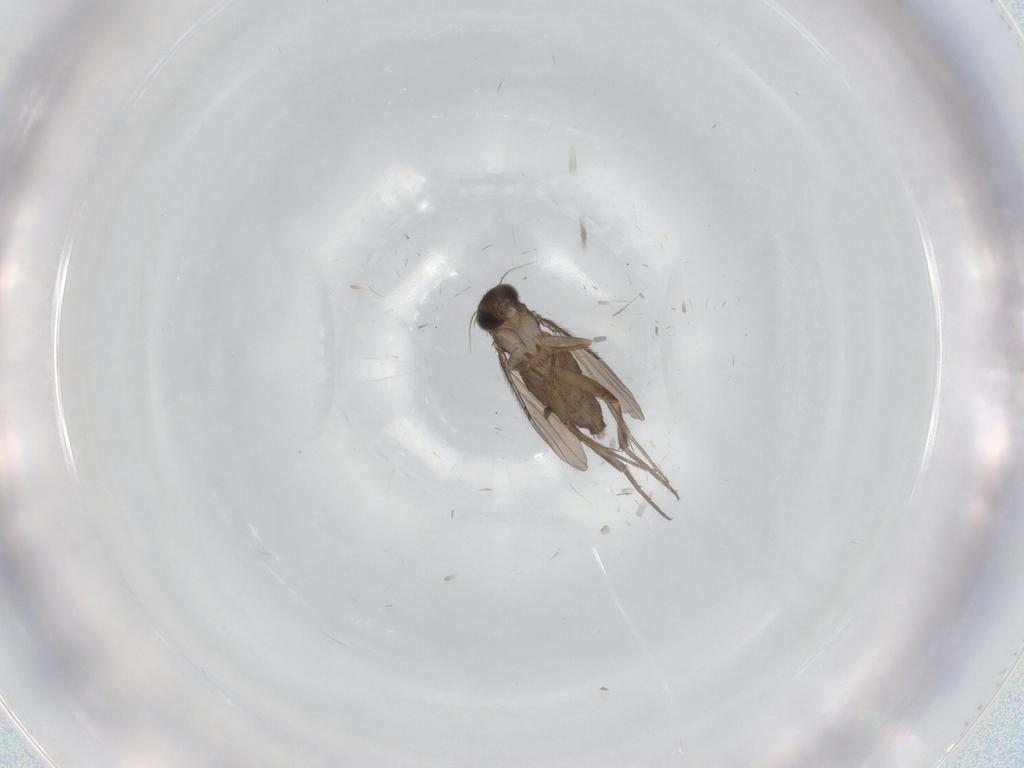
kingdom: Animalia
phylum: Arthropoda
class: Insecta
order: Diptera
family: Phoridae
